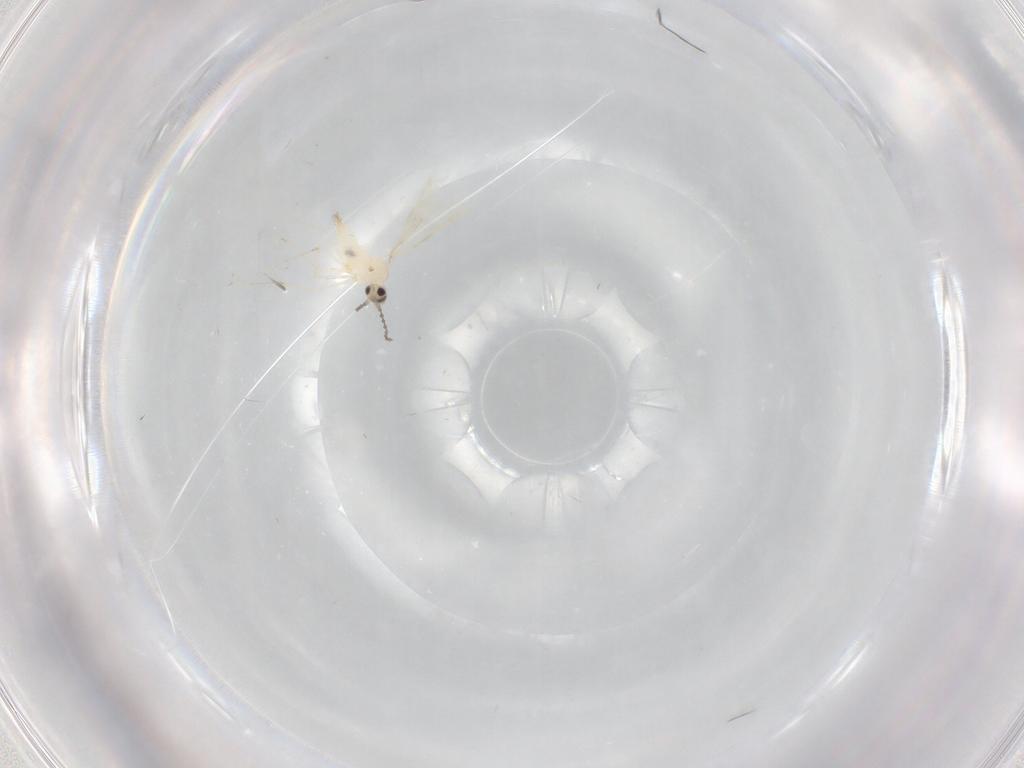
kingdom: Animalia
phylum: Arthropoda
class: Insecta
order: Diptera
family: Cecidomyiidae
